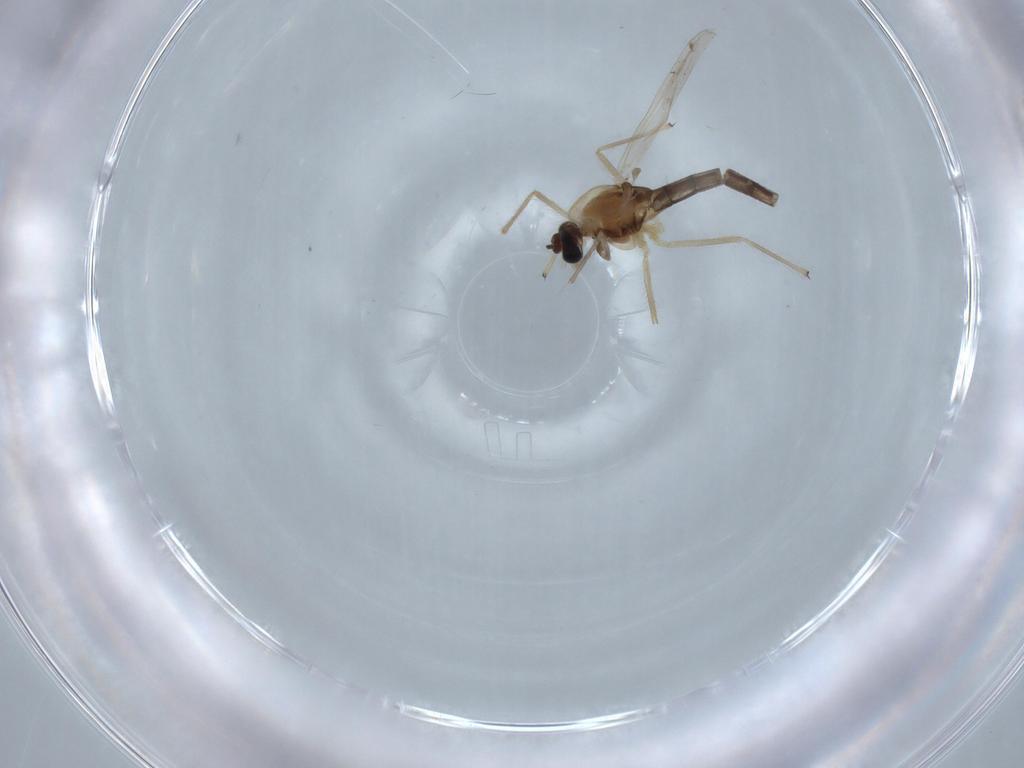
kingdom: Animalia
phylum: Arthropoda
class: Insecta
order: Diptera
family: Chironomidae
